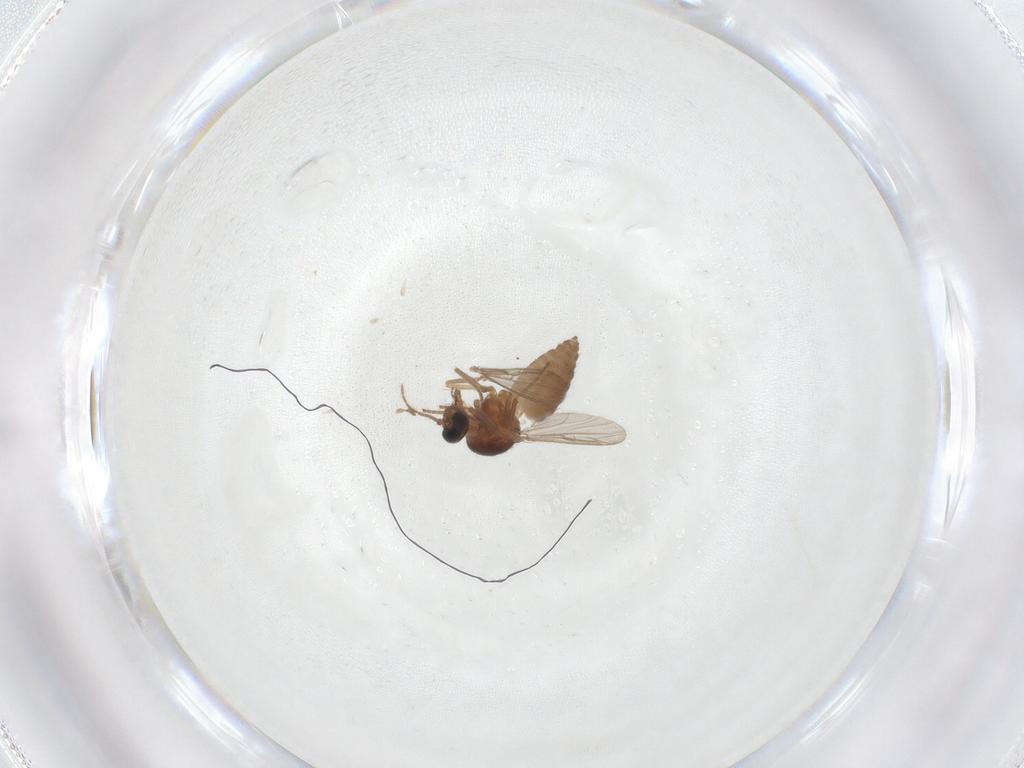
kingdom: Animalia
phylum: Arthropoda
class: Insecta
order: Diptera
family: Ceratopogonidae
